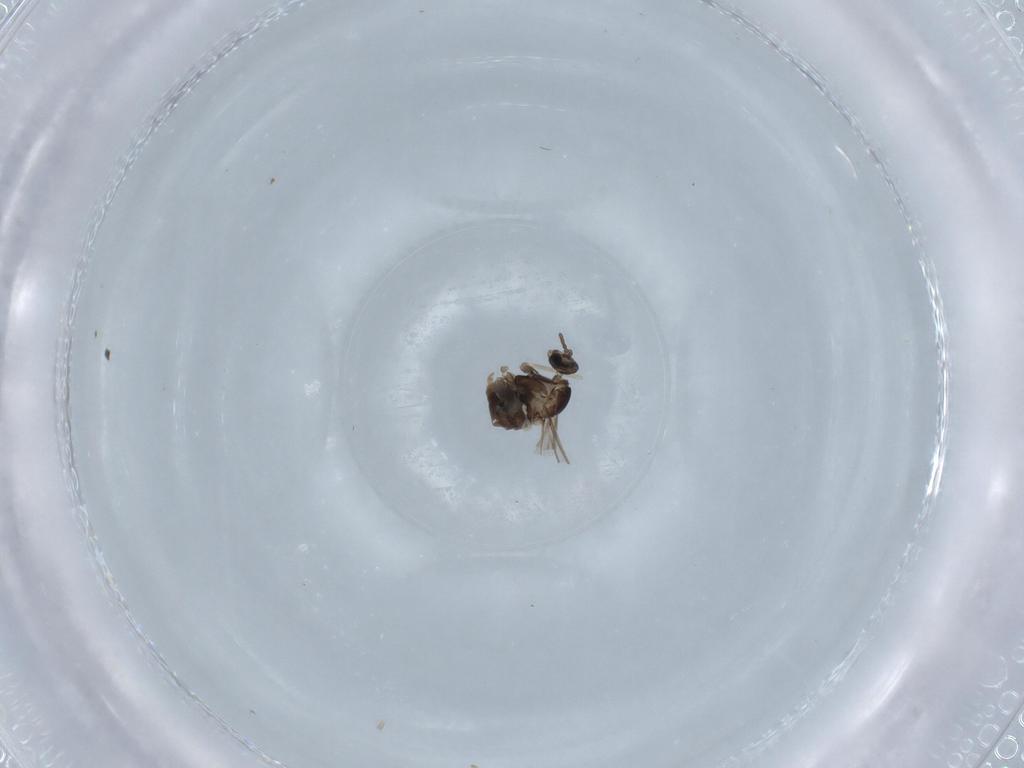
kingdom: Animalia
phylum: Arthropoda
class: Insecta
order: Diptera
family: Cecidomyiidae
